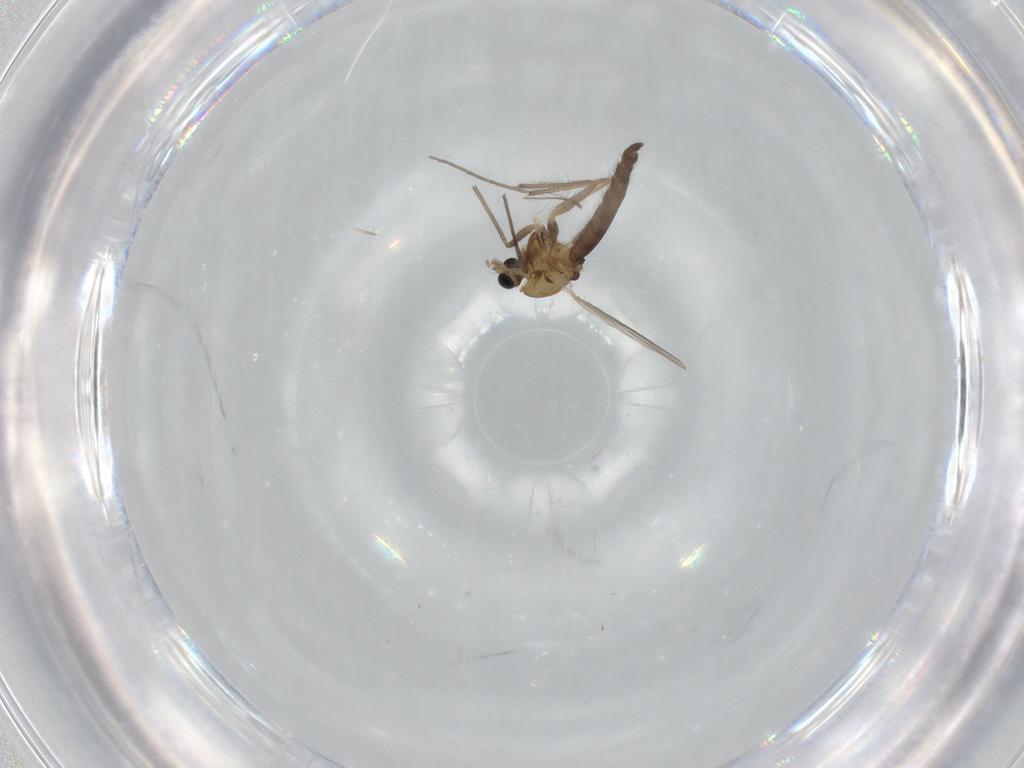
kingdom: Animalia
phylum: Arthropoda
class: Insecta
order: Diptera
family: Chironomidae
